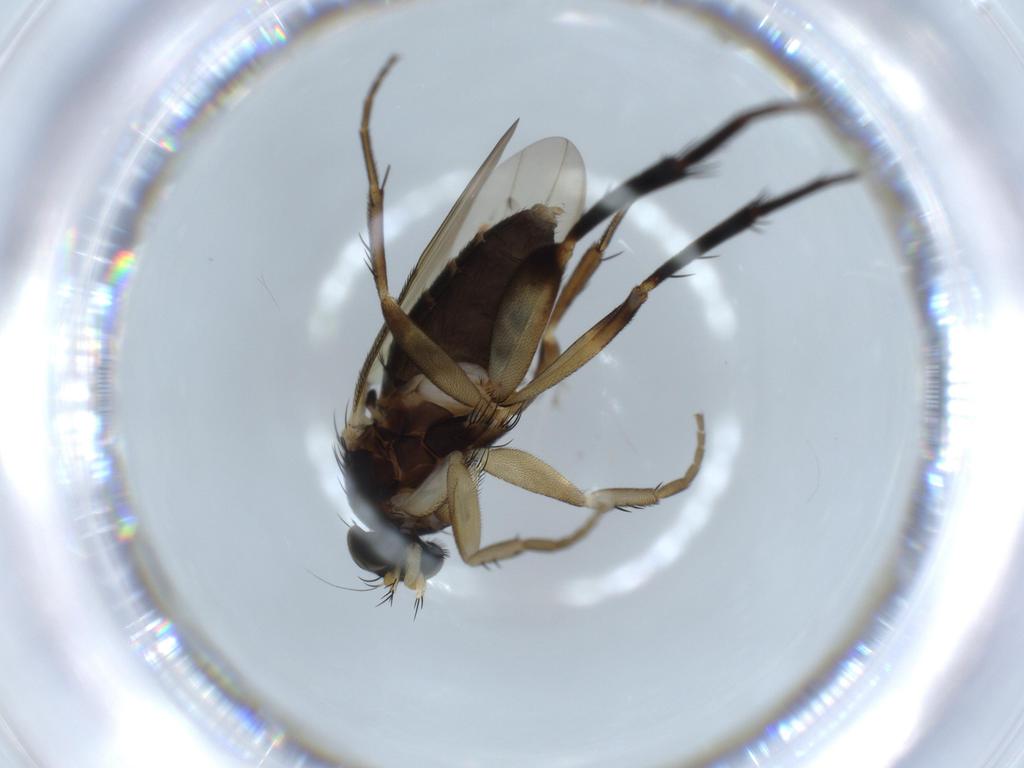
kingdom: Animalia
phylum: Arthropoda
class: Insecta
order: Diptera
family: Phoridae
